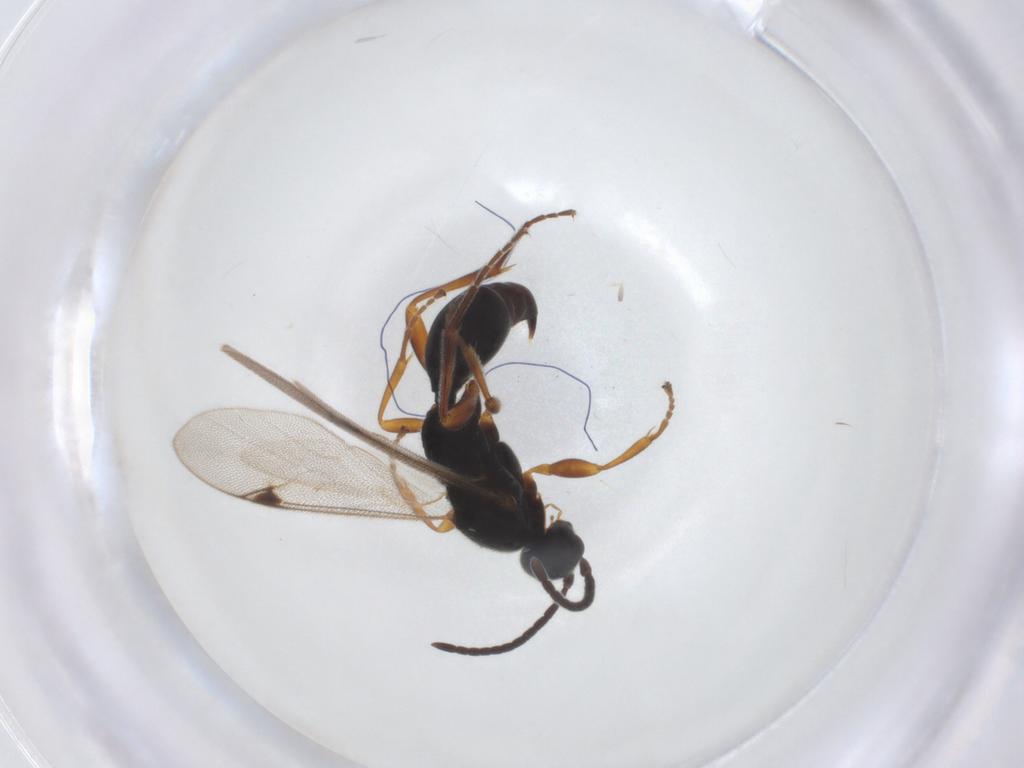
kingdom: Animalia
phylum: Arthropoda
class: Insecta
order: Hymenoptera
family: Proctotrupidae
